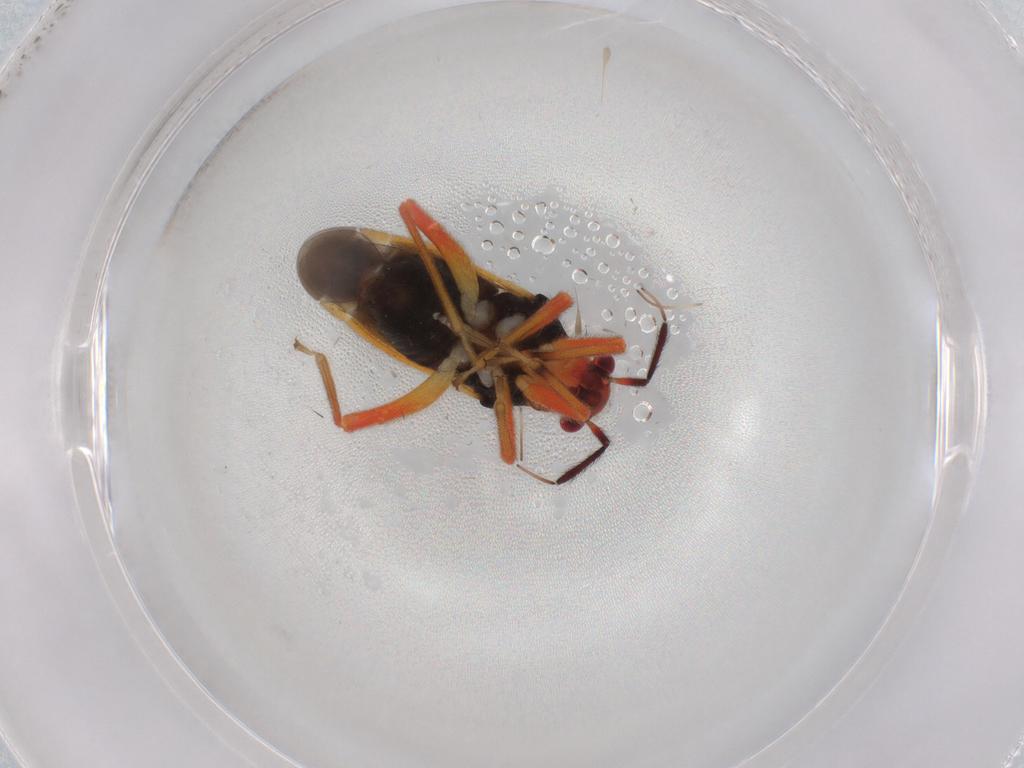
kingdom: Animalia
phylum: Arthropoda
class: Insecta
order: Hemiptera
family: Miridae
